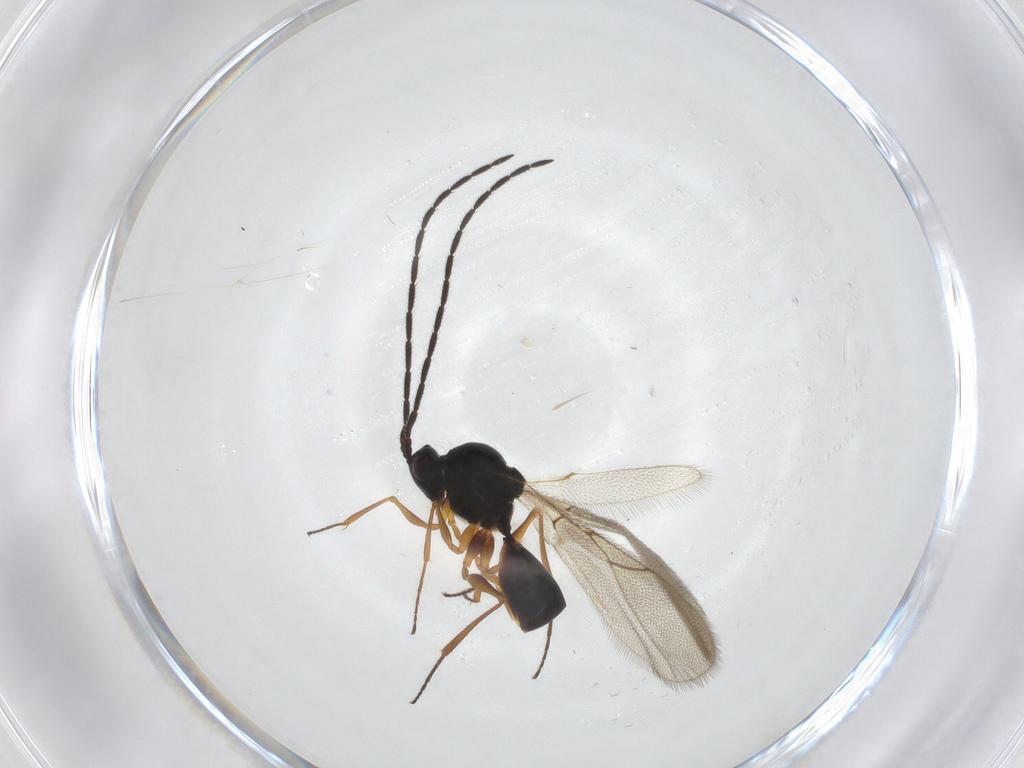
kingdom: Animalia
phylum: Arthropoda
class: Insecta
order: Hymenoptera
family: Figitidae
